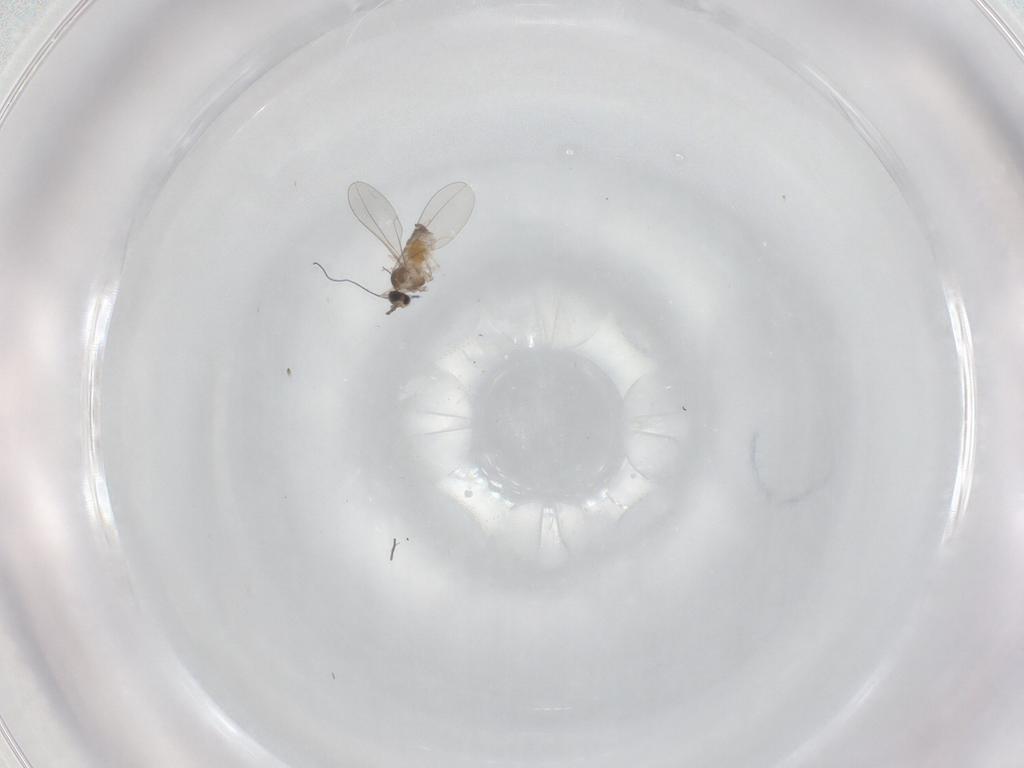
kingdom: Animalia
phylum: Arthropoda
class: Insecta
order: Diptera
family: Cecidomyiidae
